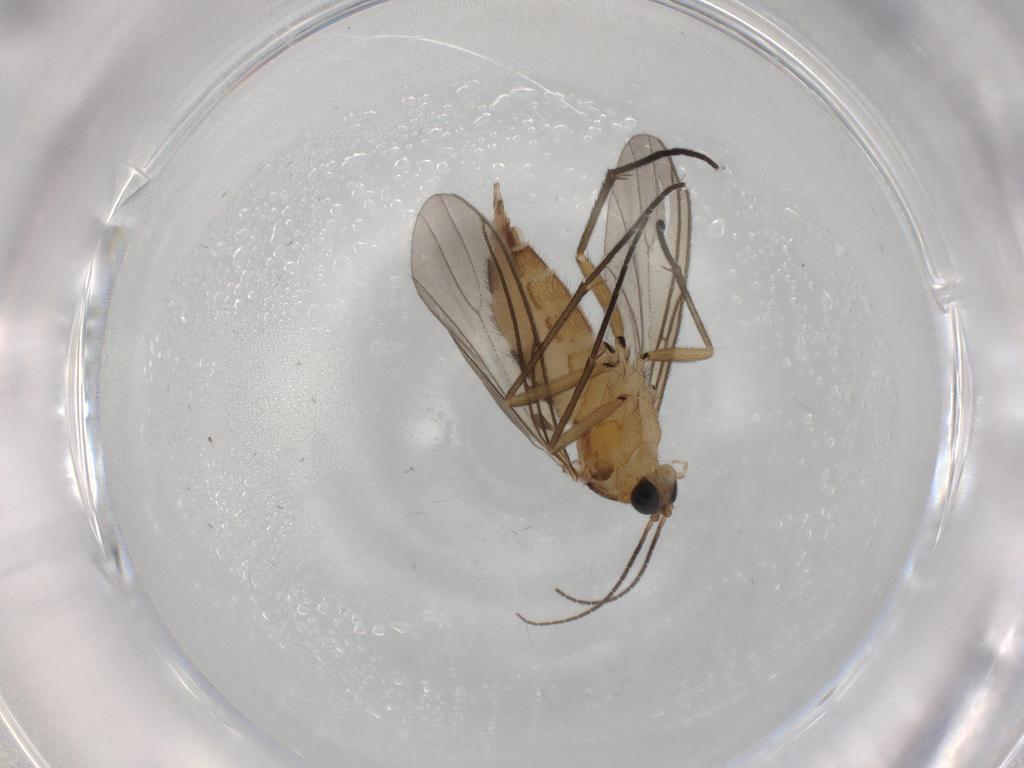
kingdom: Animalia
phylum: Arthropoda
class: Insecta
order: Diptera
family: Sciaridae
